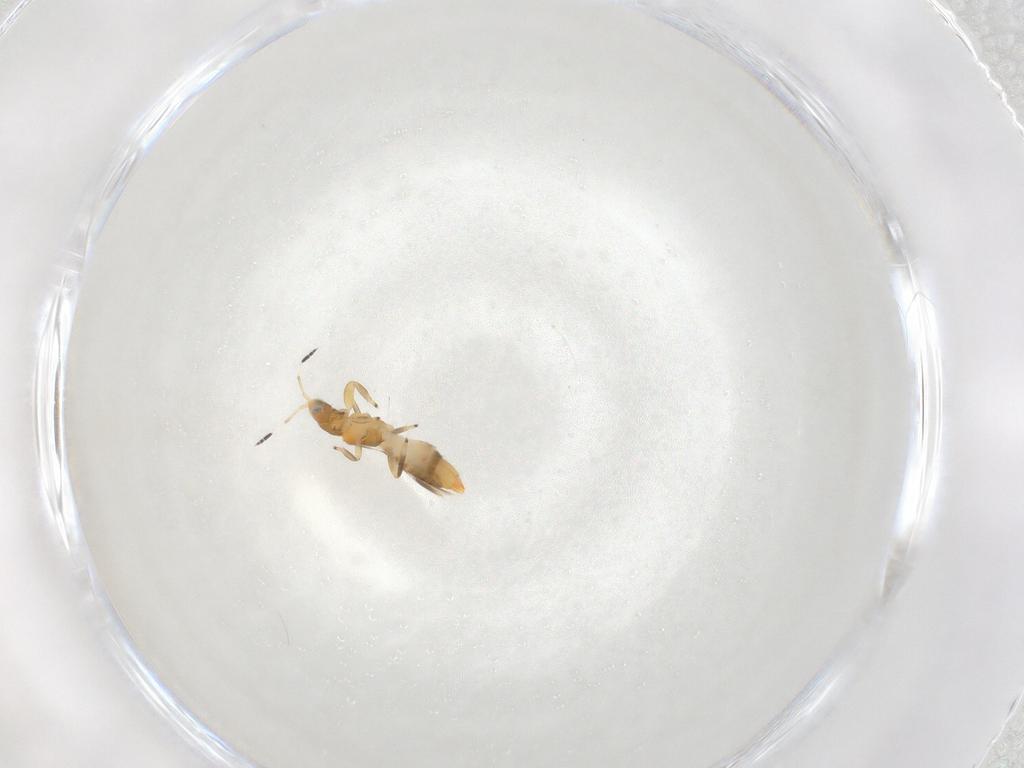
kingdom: Animalia
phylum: Arthropoda
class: Insecta
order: Thysanoptera
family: Aeolothripidae
